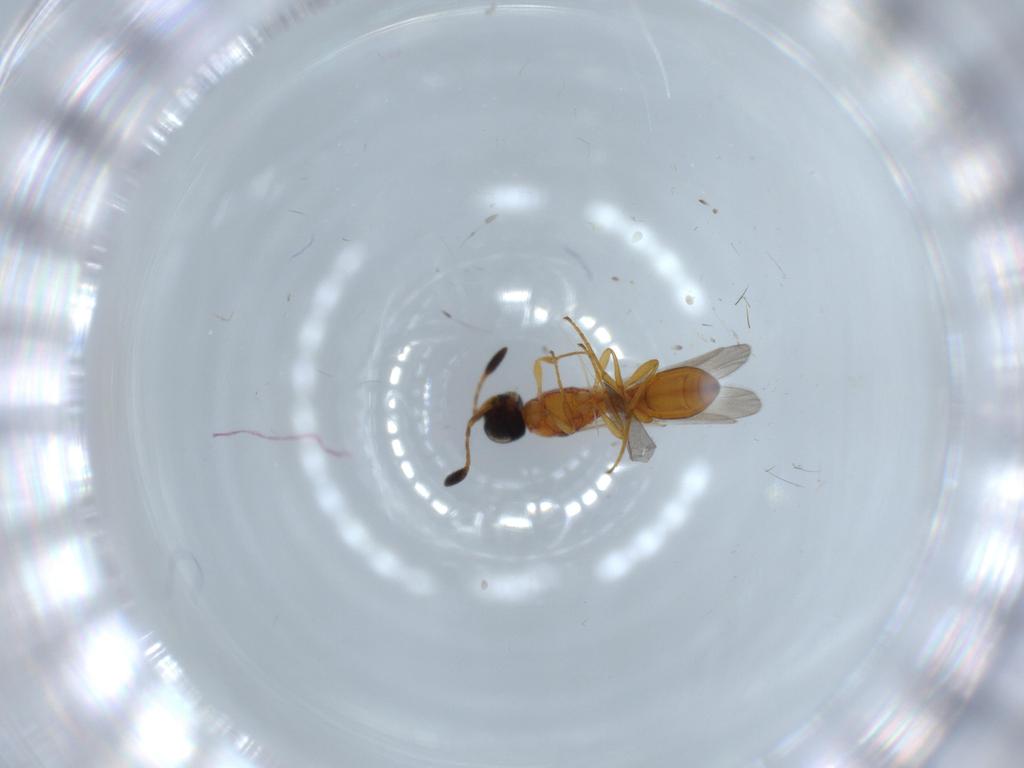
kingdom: Animalia
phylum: Arthropoda
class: Insecta
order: Hymenoptera
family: Scelionidae
